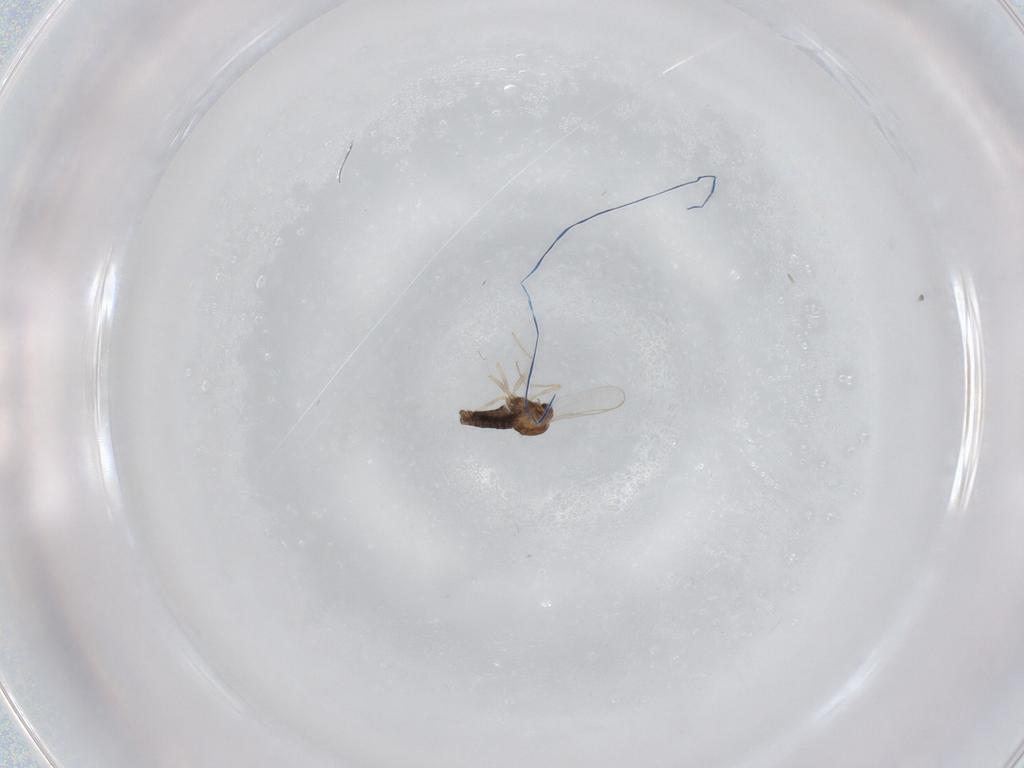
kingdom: Animalia
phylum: Arthropoda
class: Insecta
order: Diptera
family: Chironomidae
